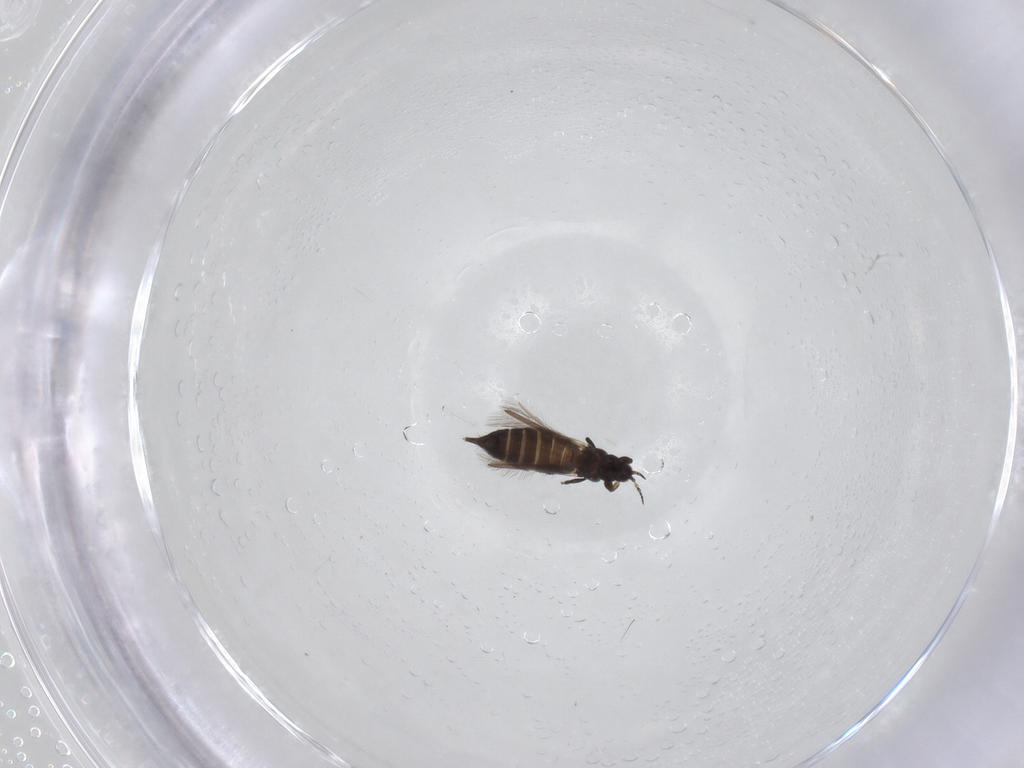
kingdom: Animalia
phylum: Arthropoda
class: Insecta
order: Thysanoptera
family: Heterothripidae
